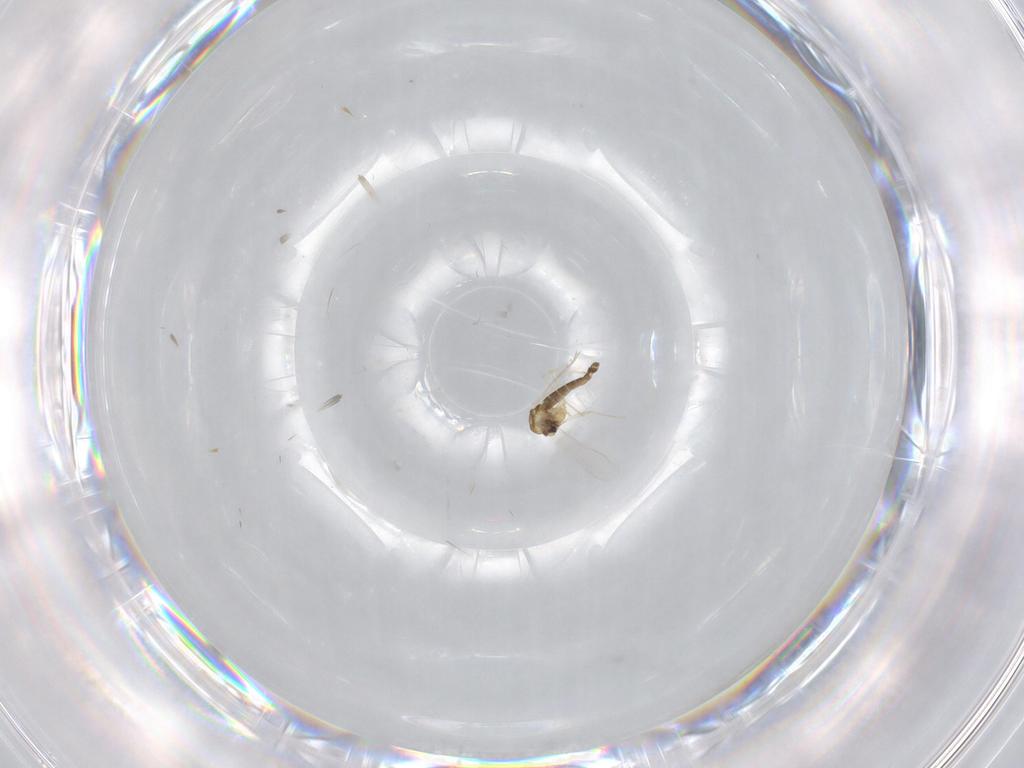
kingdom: Animalia
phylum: Arthropoda
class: Insecta
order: Diptera
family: Chironomidae
